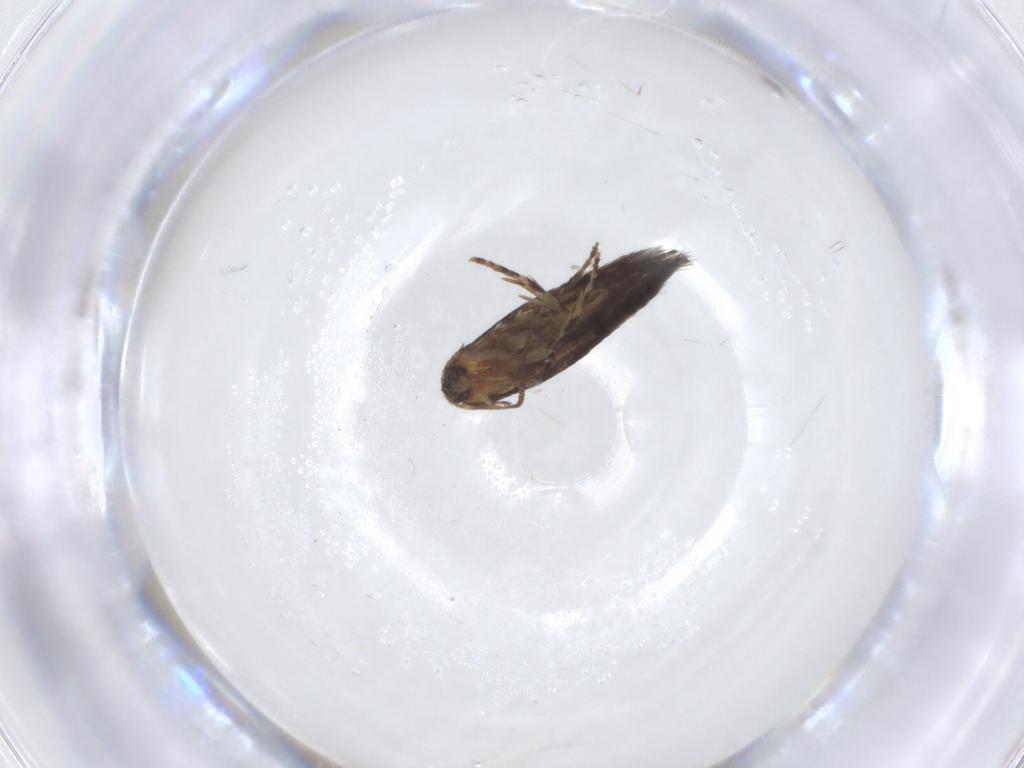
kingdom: Animalia
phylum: Arthropoda
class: Insecta
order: Lepidoptera
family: Elachistidae
